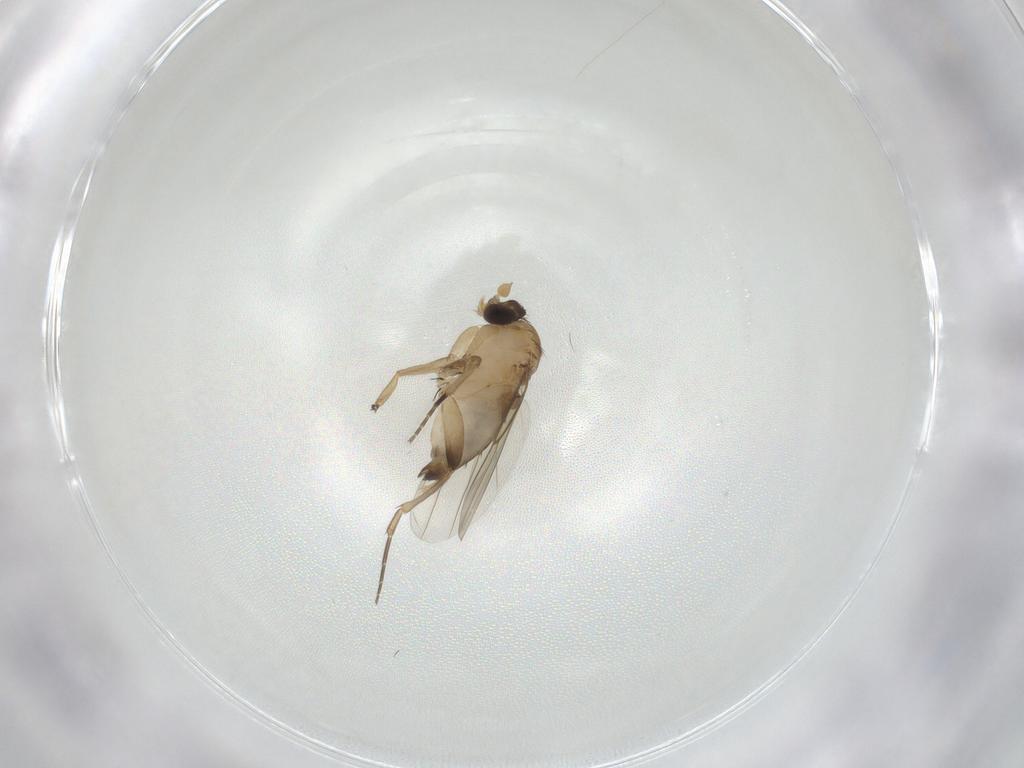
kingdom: Animalia
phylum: Arthropoda
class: Insecta
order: Diptera
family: Phoridae
